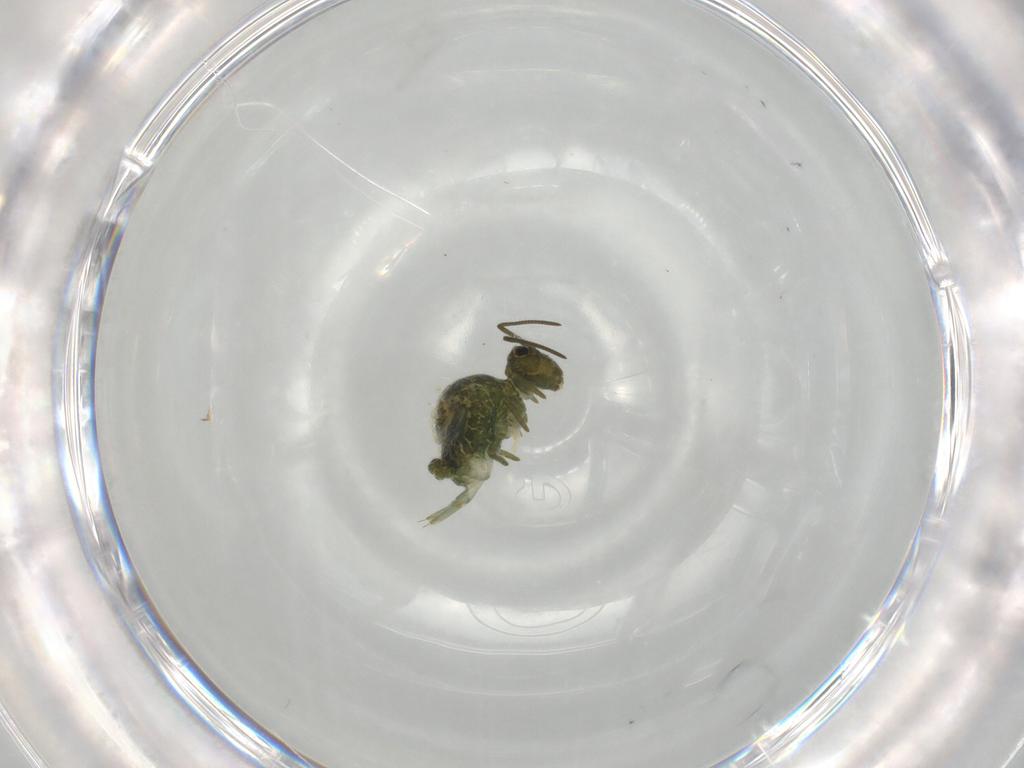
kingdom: Animalia
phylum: Arthropoda
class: Collembola
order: Symphypleona
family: Sminthuridae
